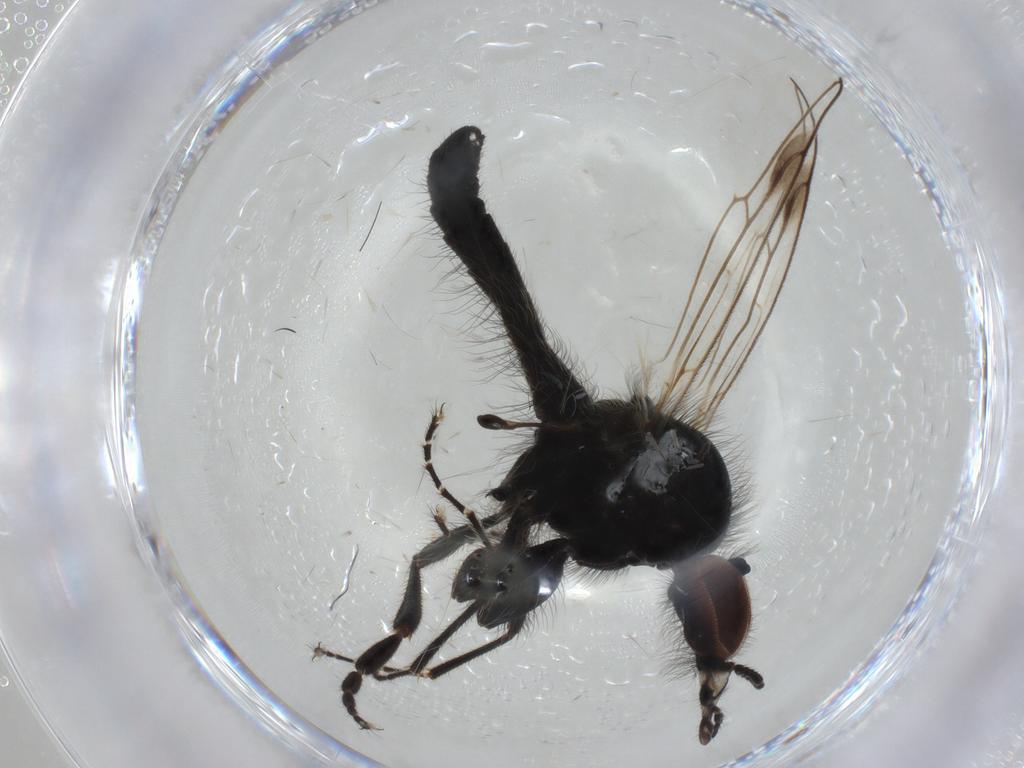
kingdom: Animalia
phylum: Arthropoda
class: Insecta
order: Diptera
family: Bibionidae
